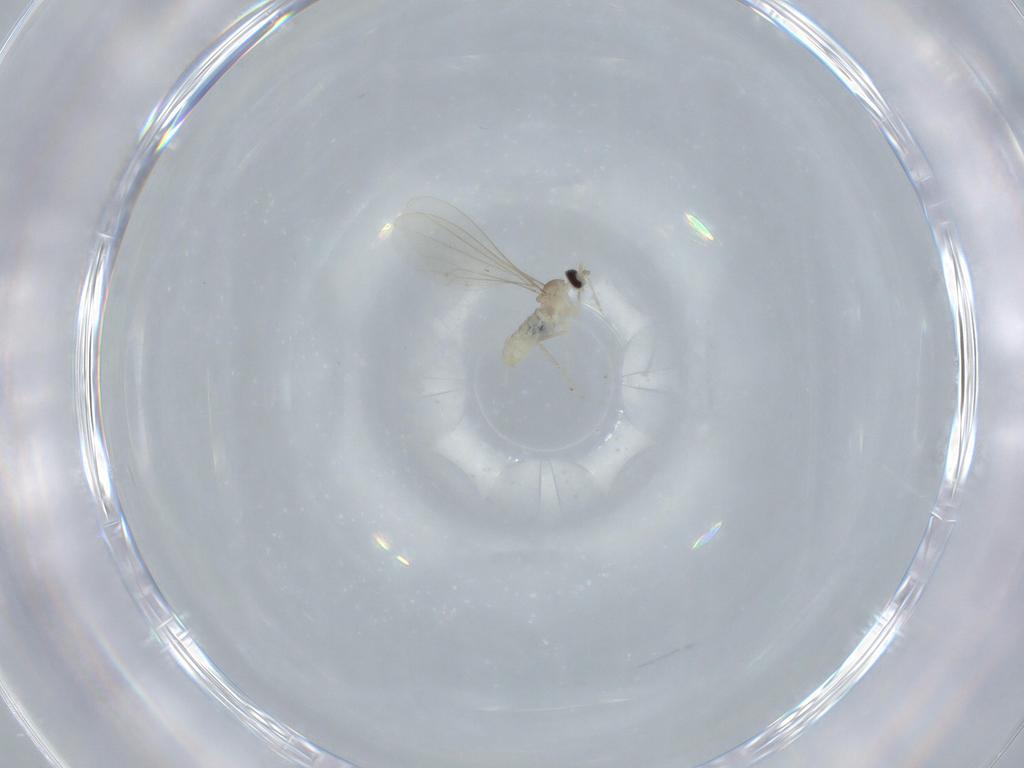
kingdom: Animalia
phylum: Arthropoda
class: Insecta
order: Diptera
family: Cecidomyiidae
